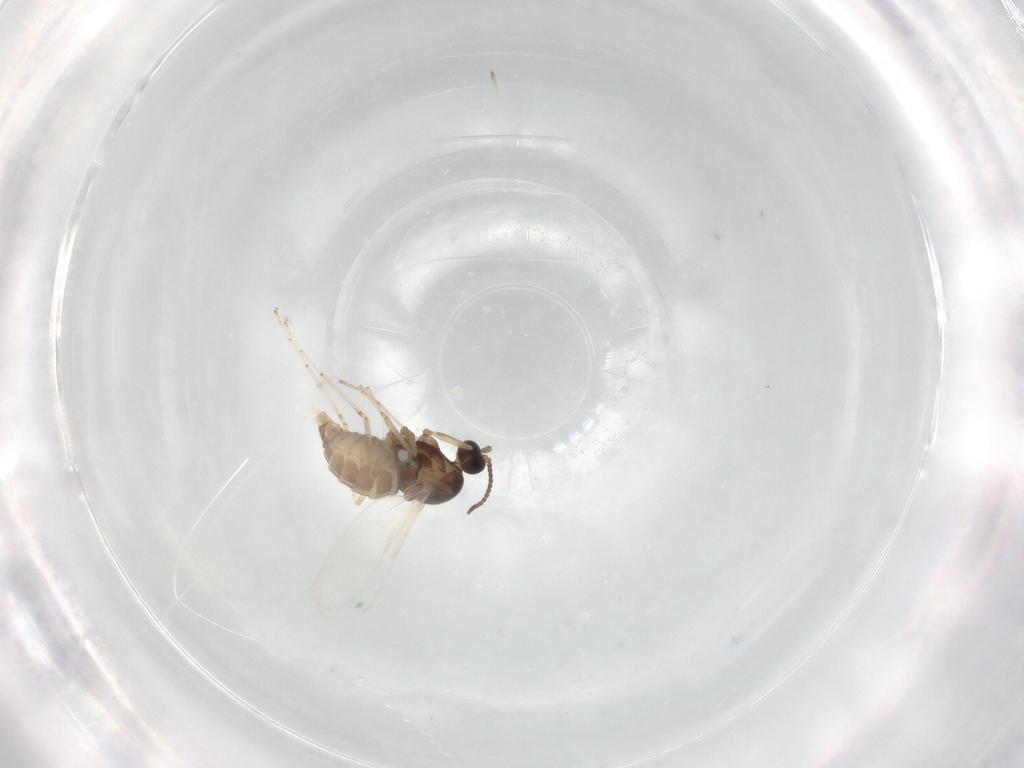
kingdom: Animalia
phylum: Arthropoda
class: Insecta
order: Diptera
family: Cecidomyiidae
